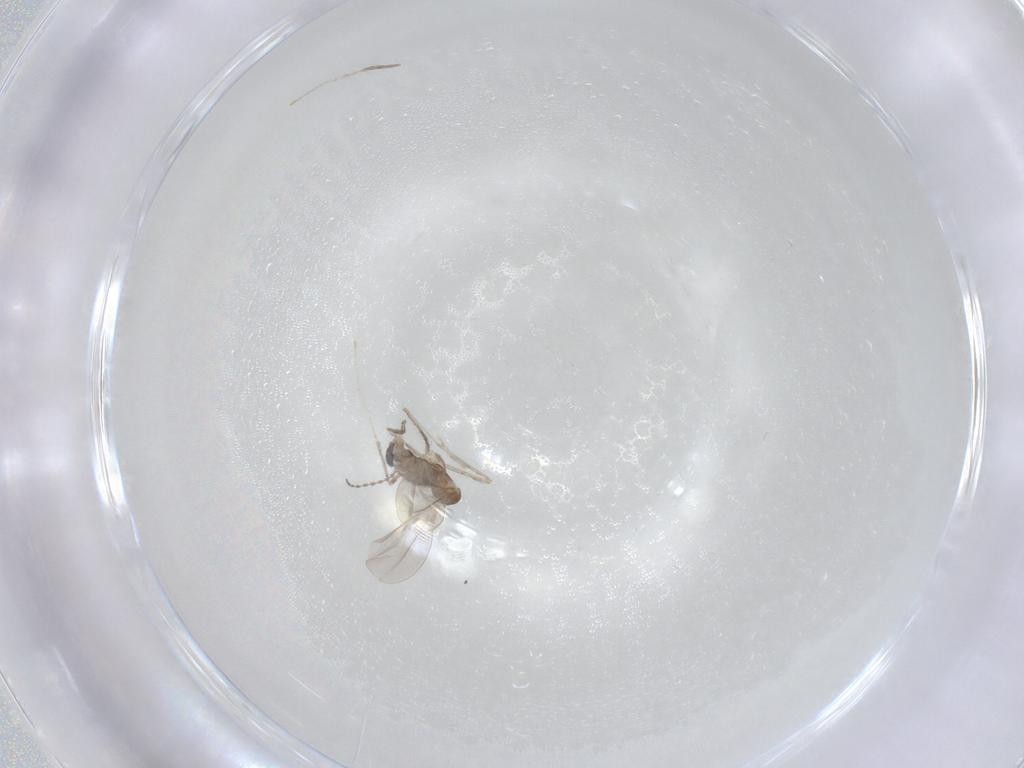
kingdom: Animalia
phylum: Arthropoda
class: Insecta
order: Diptera
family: Cecidomyiidae
